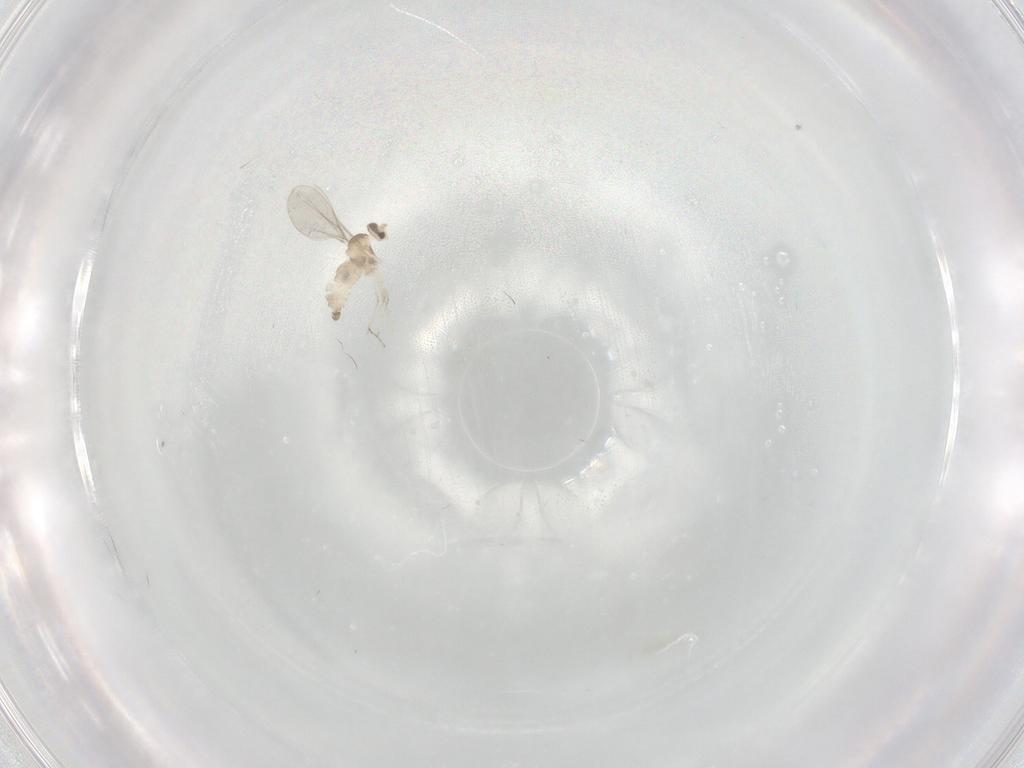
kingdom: Animalia
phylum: Arthropoda
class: Insecta
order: Diptera
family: Cecidomyiidae
